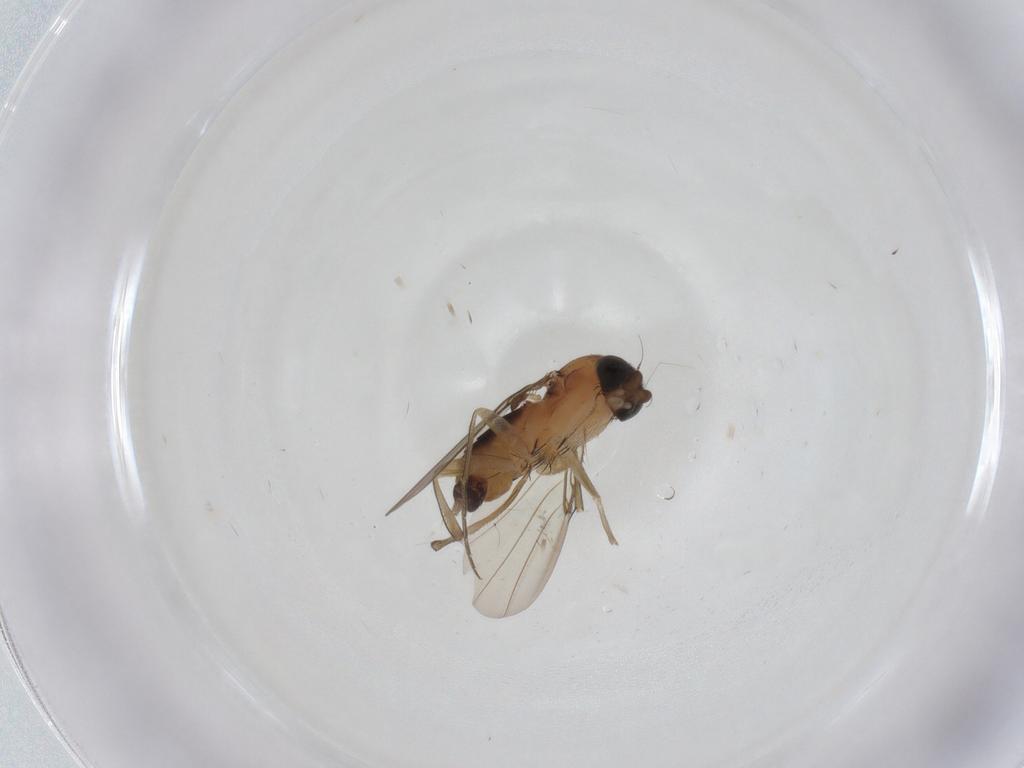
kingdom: Animalia
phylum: Arthropoda
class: Insecta
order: Diptera
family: Phoridae
